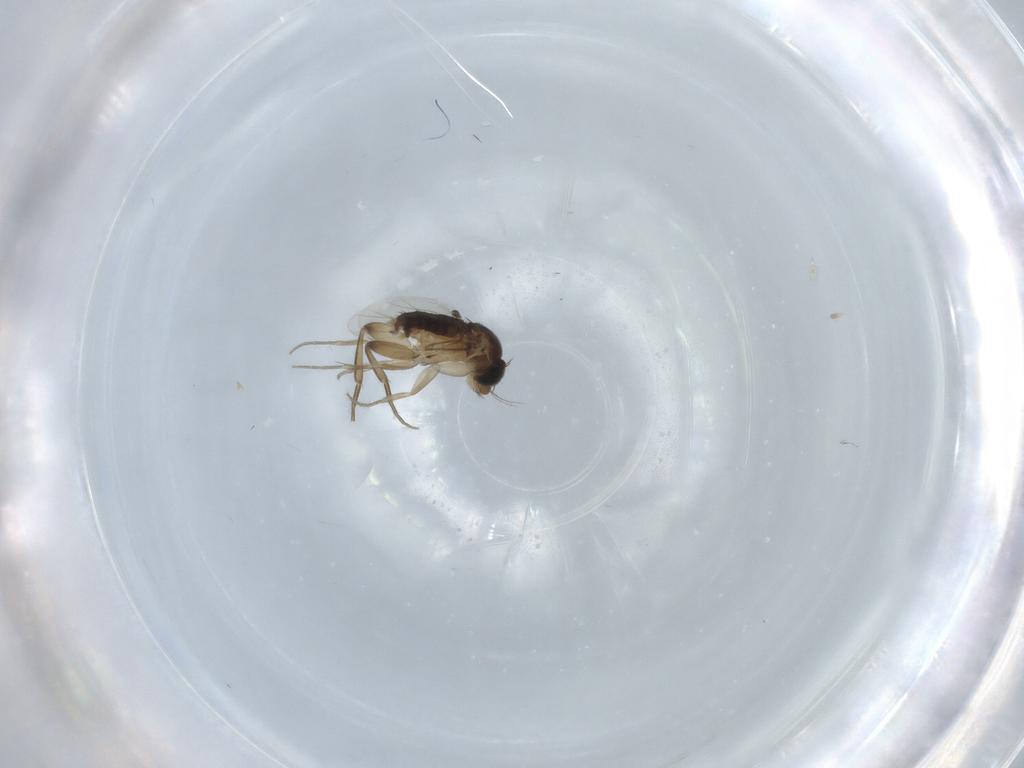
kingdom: Animalia
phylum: Arthropoda
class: Insecta
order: Diptera
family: Phoridae
